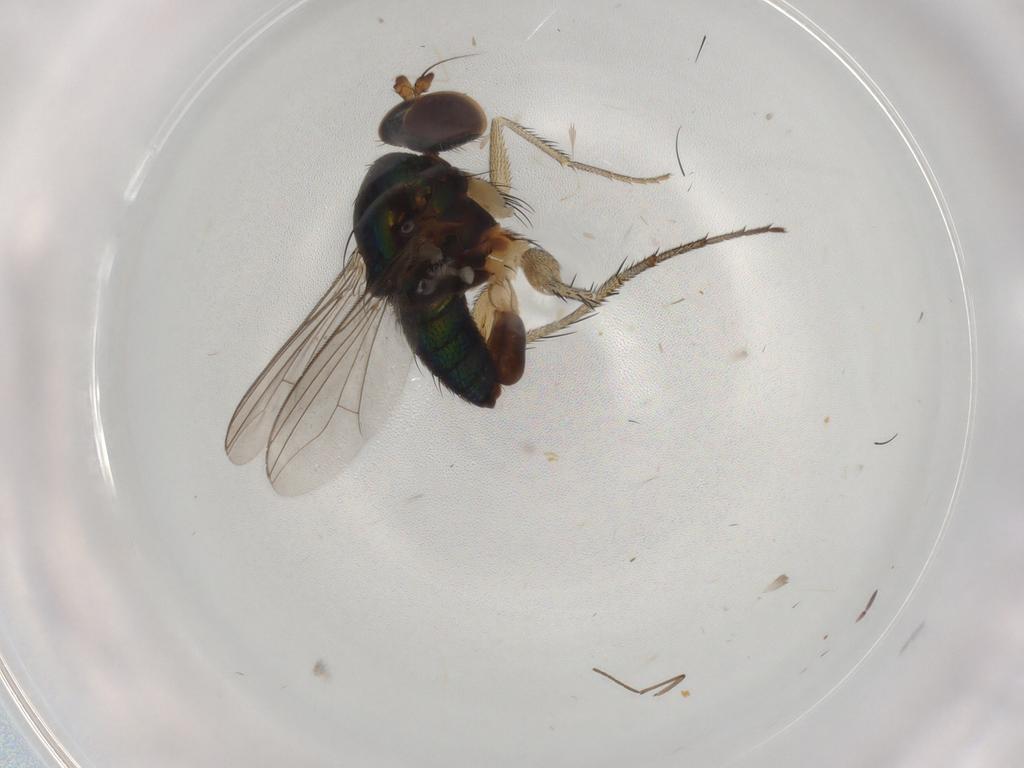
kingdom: Animalia
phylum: Arthropoda
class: Insecta
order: Diptera
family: Dolichopodidae
